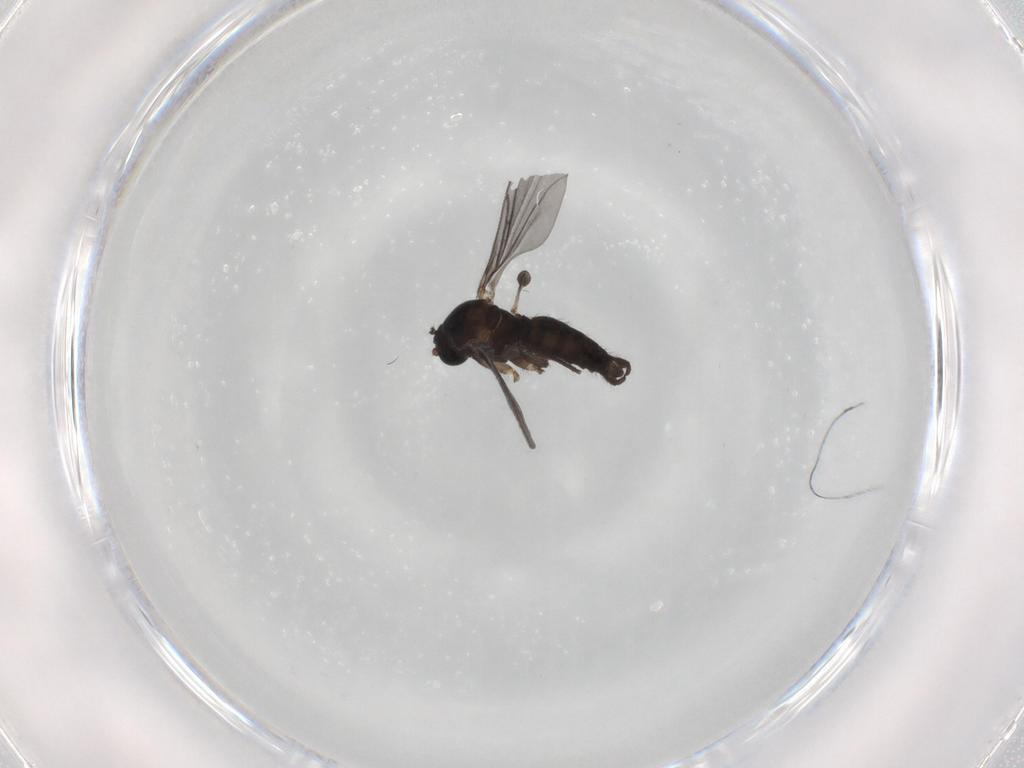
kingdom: Animalia
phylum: Arthropoda
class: Insecta
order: Diptera
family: Sciaridae
